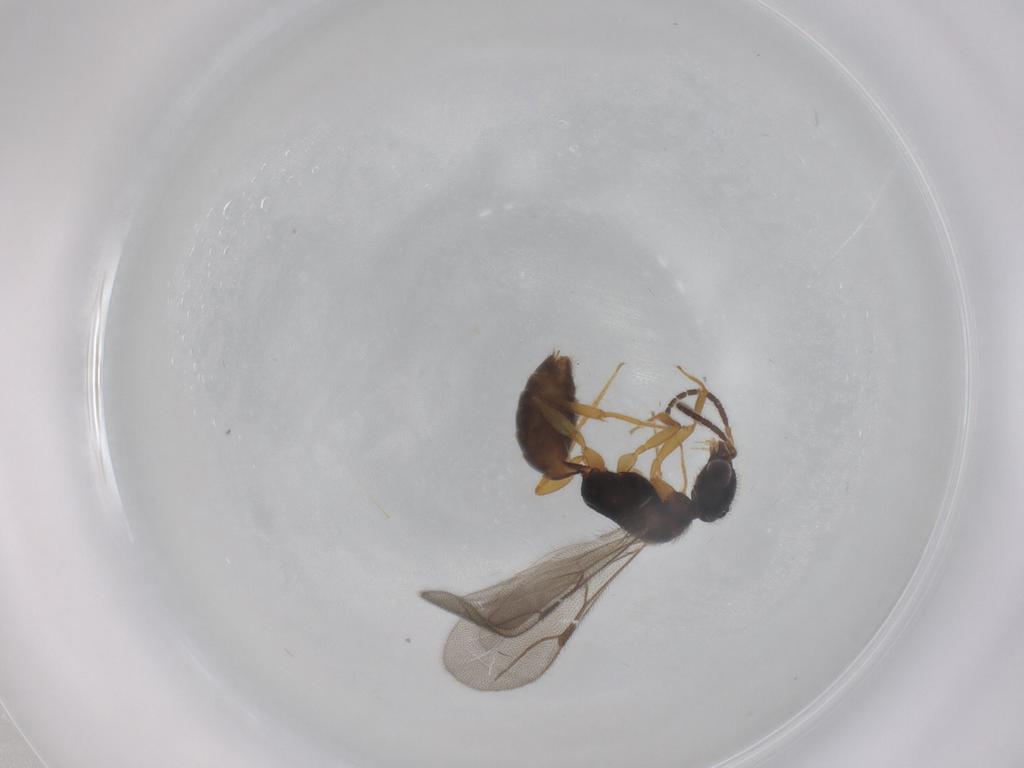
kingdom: Animalia
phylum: Arthropoda
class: Insecta
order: Hymenoptera
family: Bethylidae
